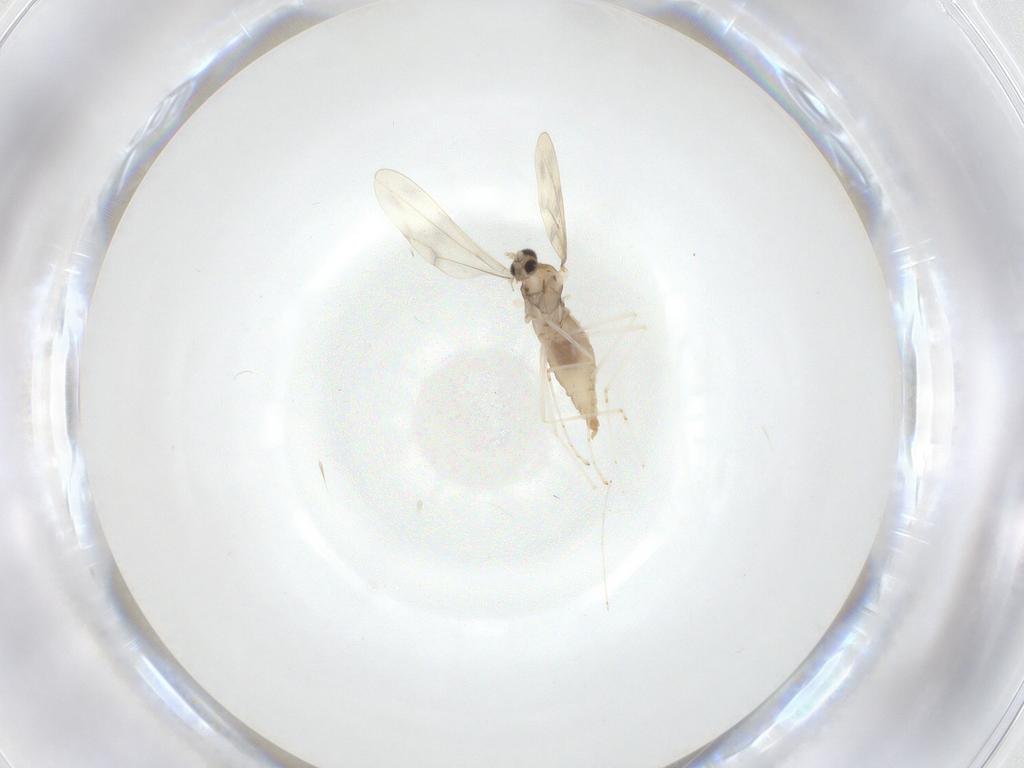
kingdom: Animalia
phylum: Arthropoda
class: Insecta
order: Diptera
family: Cecidomyiidae
